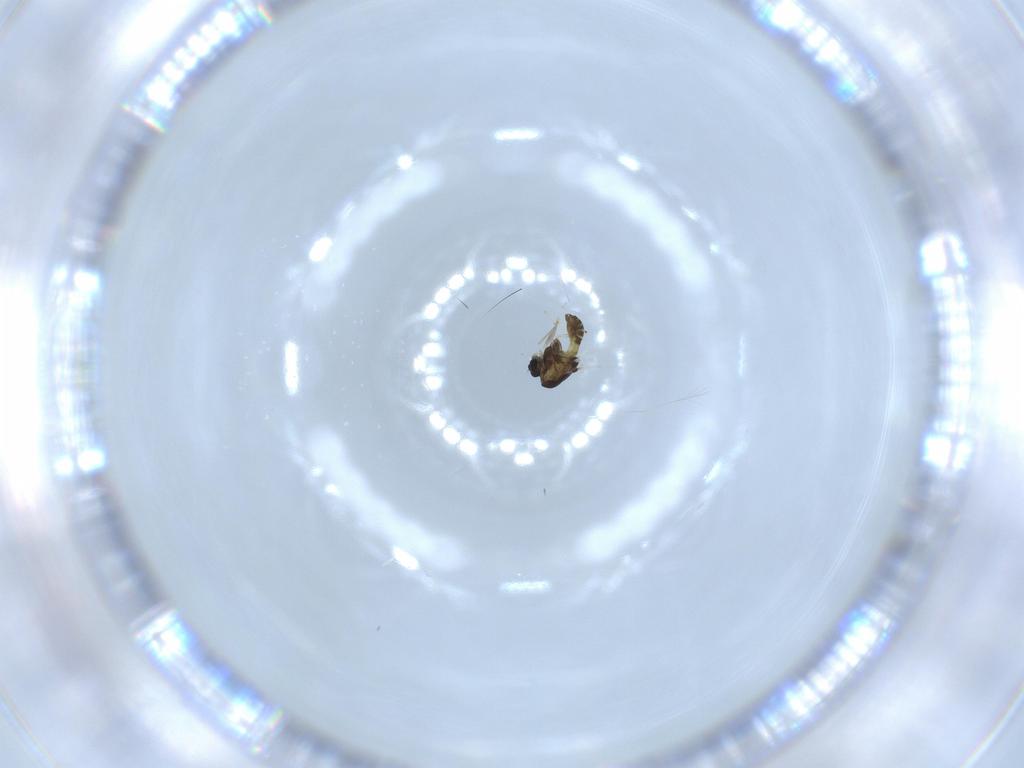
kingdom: Animalia
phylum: Arthropoda
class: Insecta
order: Diptera
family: Chironomidae
